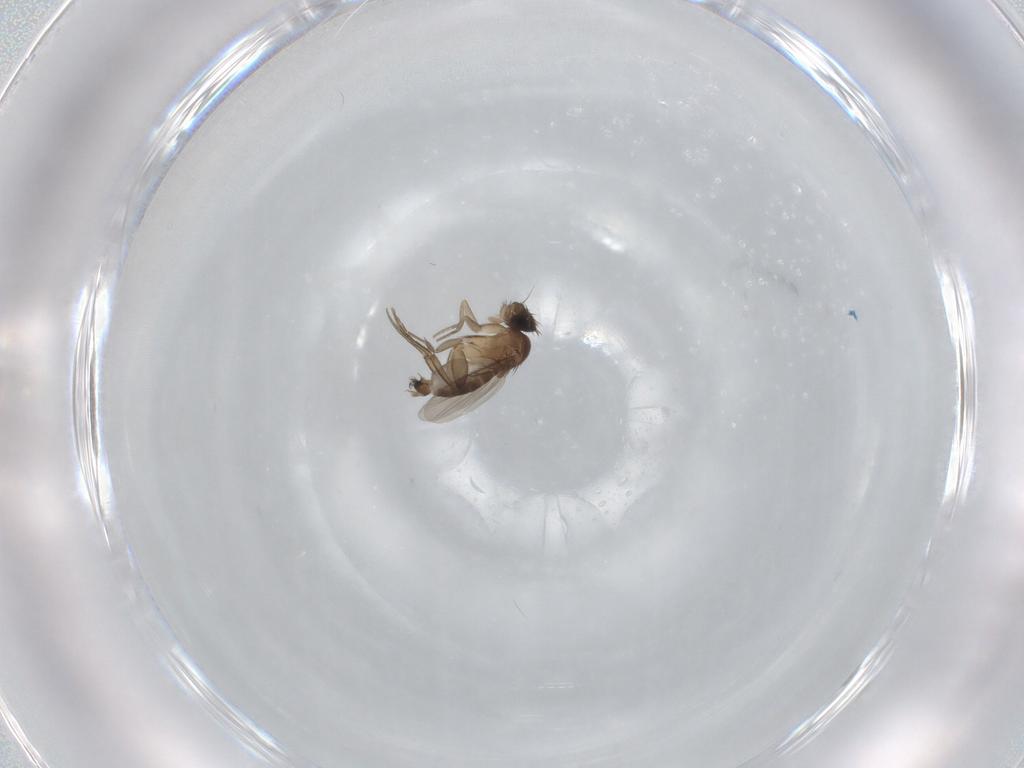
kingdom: Animalia
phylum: Arthropoda
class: Insecta
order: Diptera
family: Phoridae
